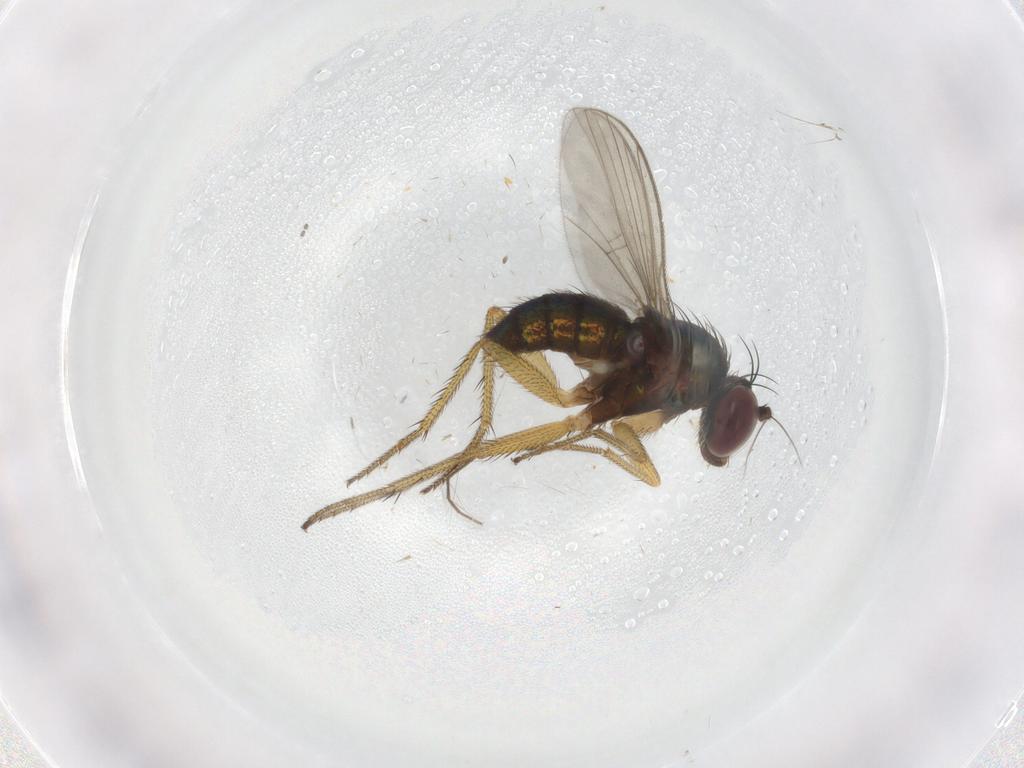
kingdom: Animalia
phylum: Arthropoda
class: Insecta
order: Diptera
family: Dolichopodidae
